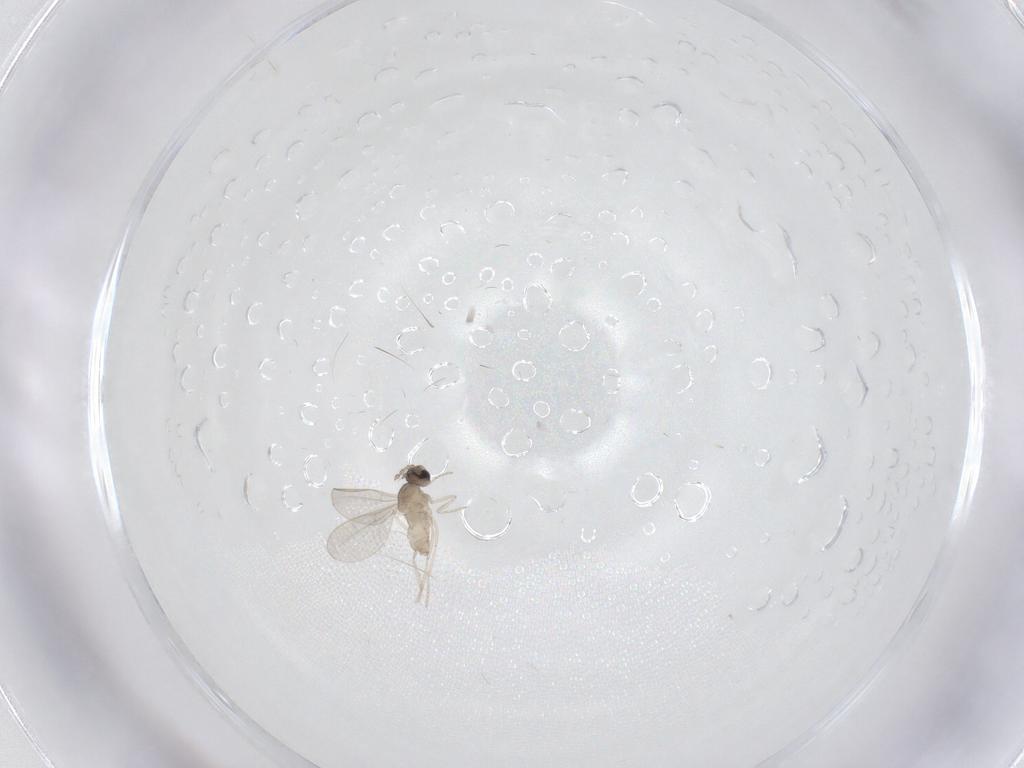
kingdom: Animalia
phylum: Arthropoda
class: Insecta
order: Diptera
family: Cecidomyiidae
